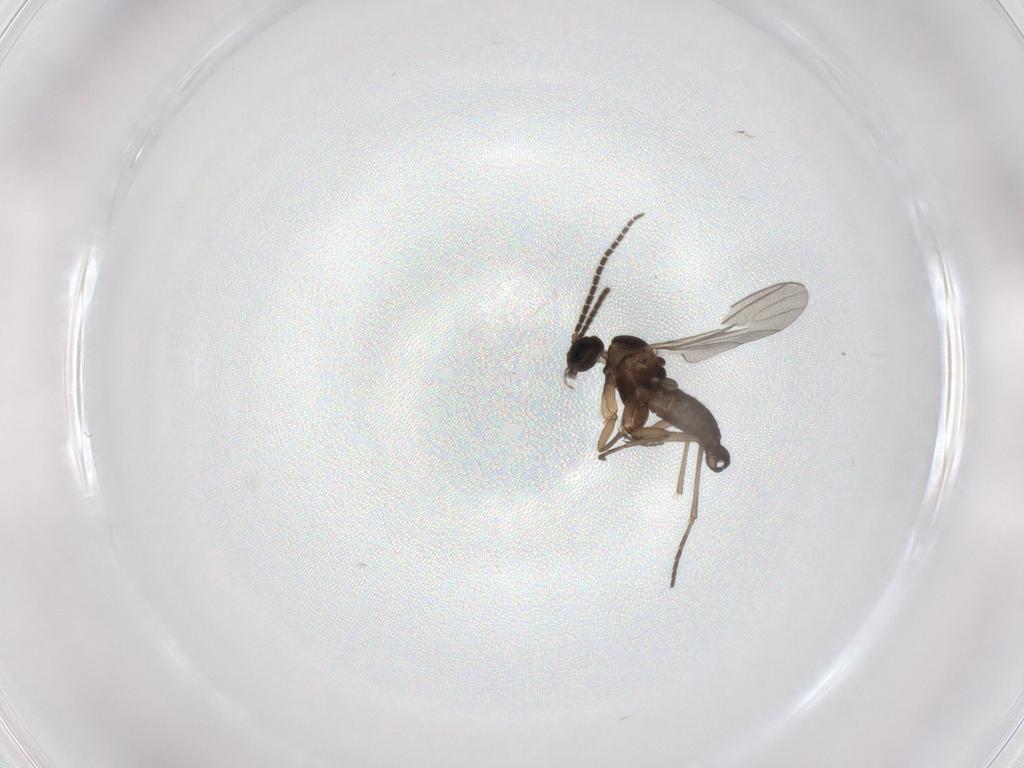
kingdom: Animalia
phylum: Arthropoda
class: Insecta
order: Diptera
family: Sciaridae
